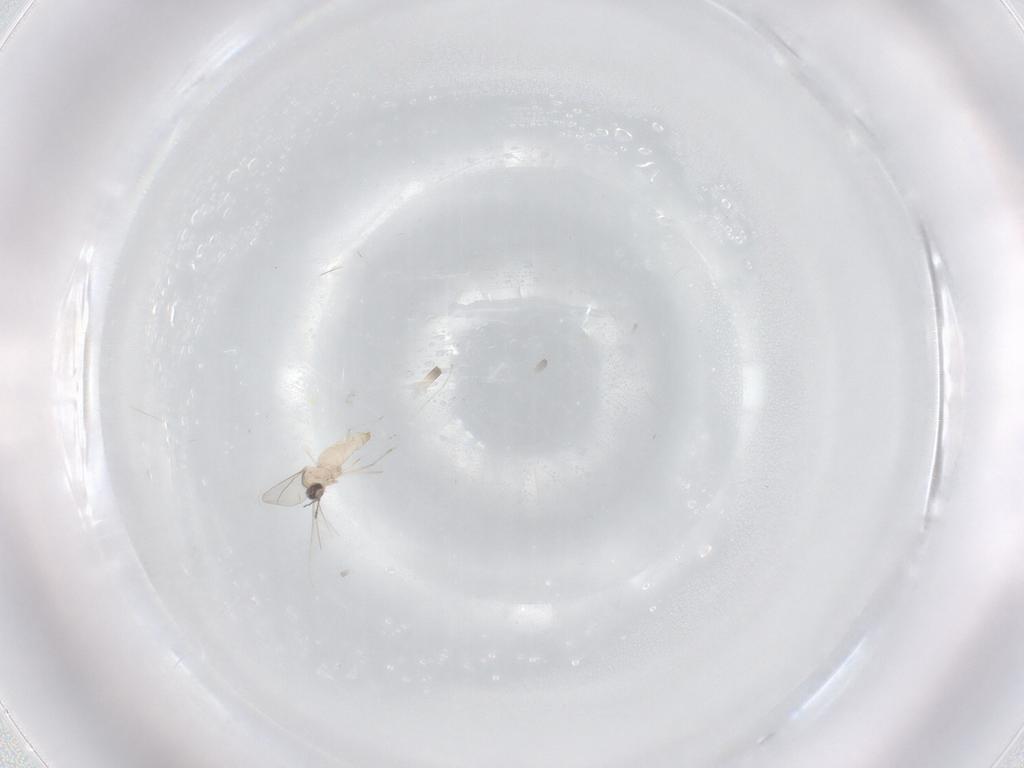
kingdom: Animalia
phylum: Arthropoda
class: Insecta
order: Diptera
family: Cecidomyiidae
